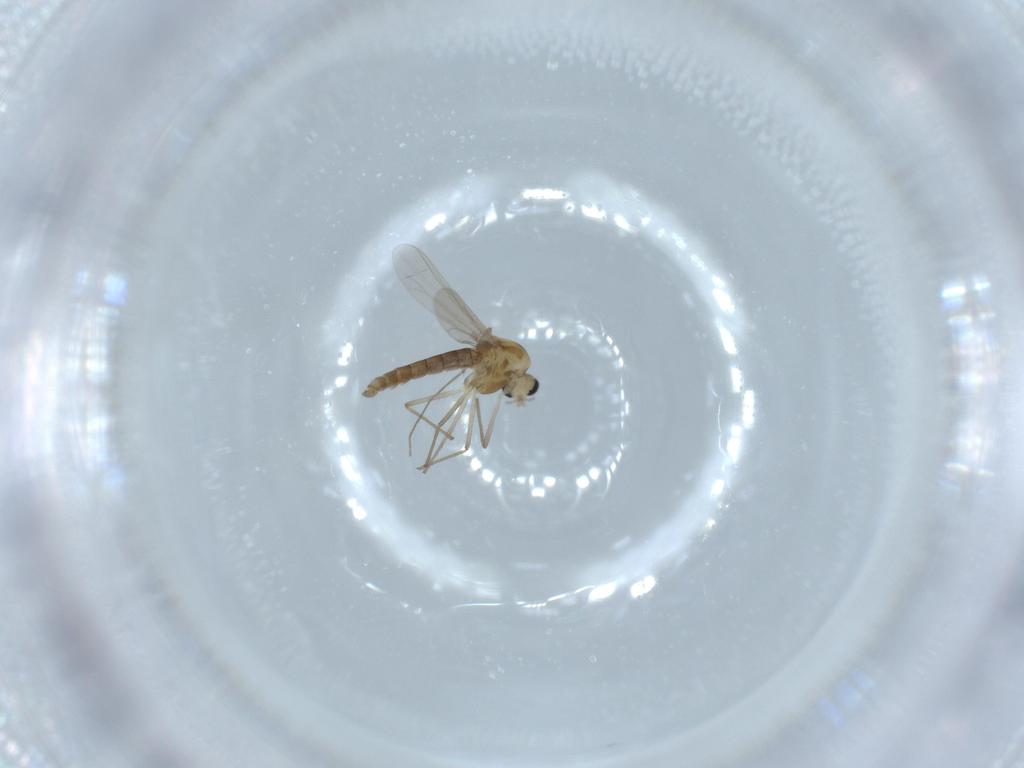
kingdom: Animalia
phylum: Arthropoda
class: Insecta
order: Diptera
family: Chironomidae
